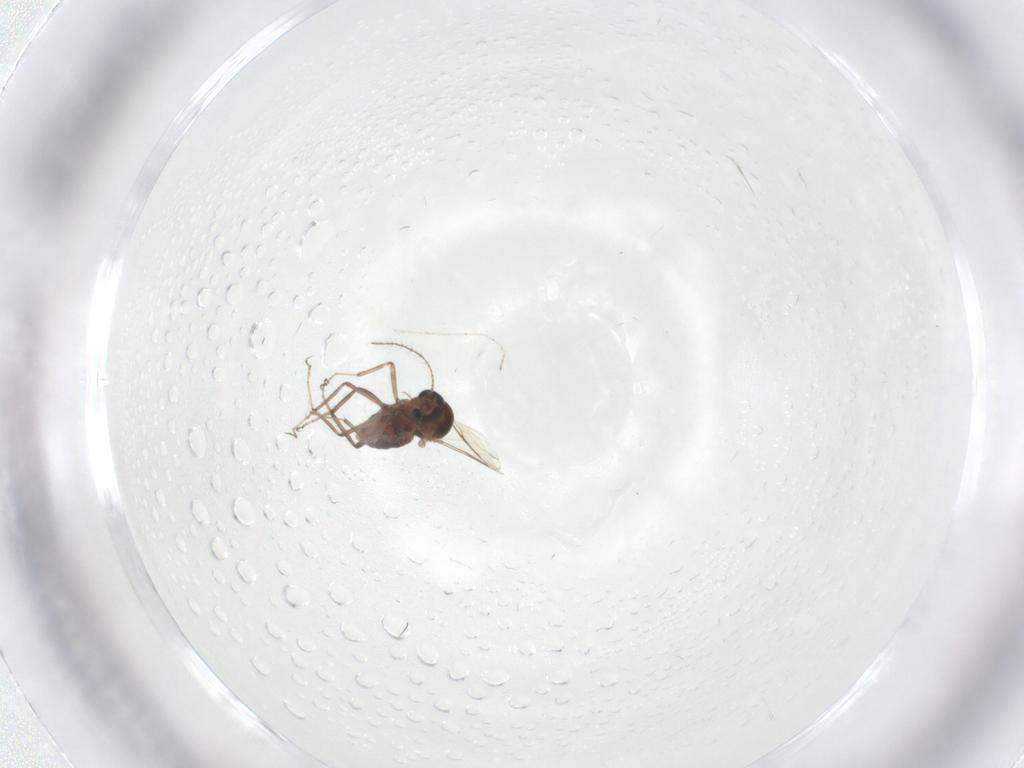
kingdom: Animalia
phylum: Arthropoda
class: Insecta
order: Diptera
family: Ceratopogonidae
